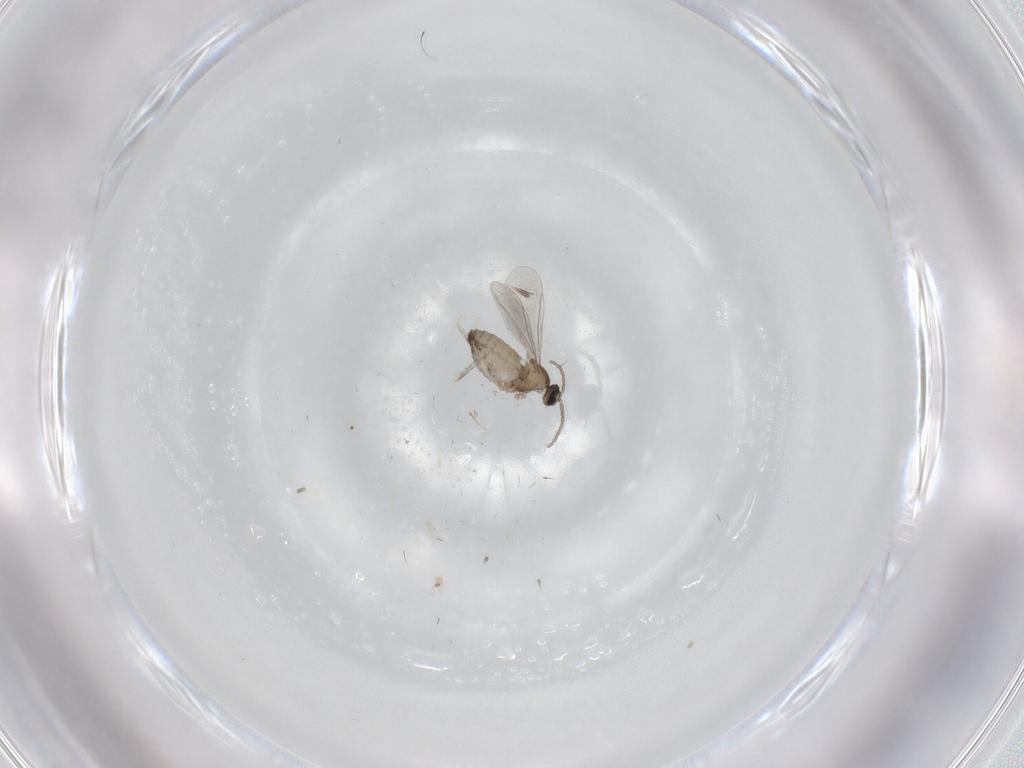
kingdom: Animalia
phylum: Arthropoda
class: Insecta
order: Diptera
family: Cecidomyiidae
